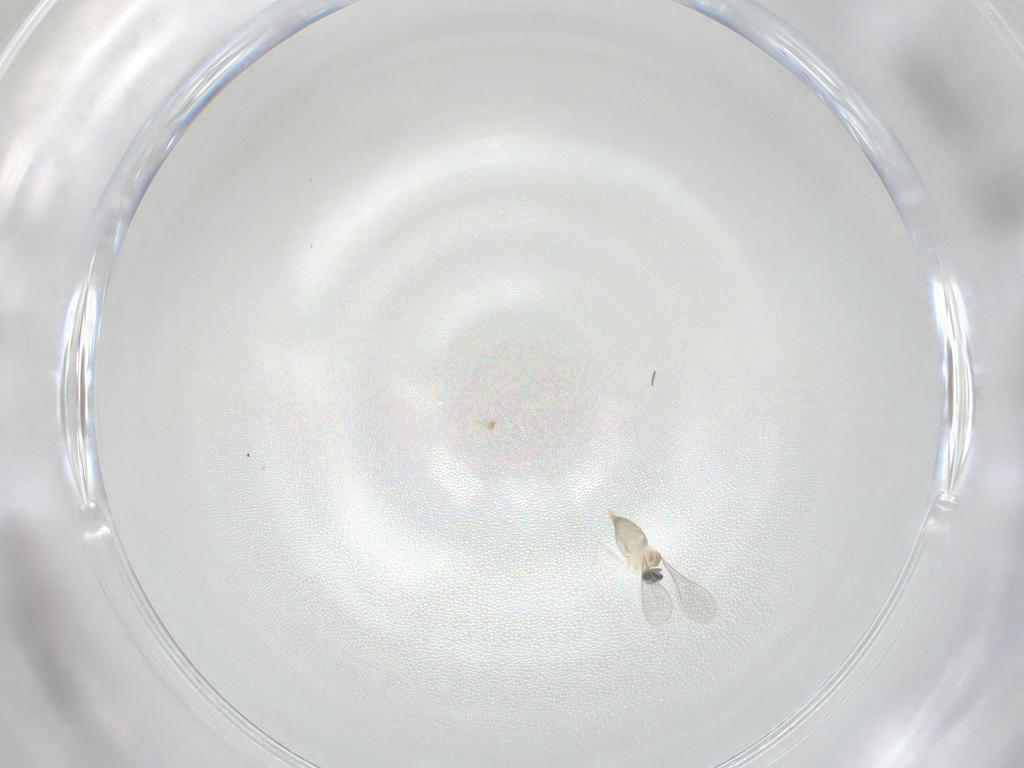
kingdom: Animalia
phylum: Arthropoda
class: Insecta
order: Diptera
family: Cecidomyiidae
